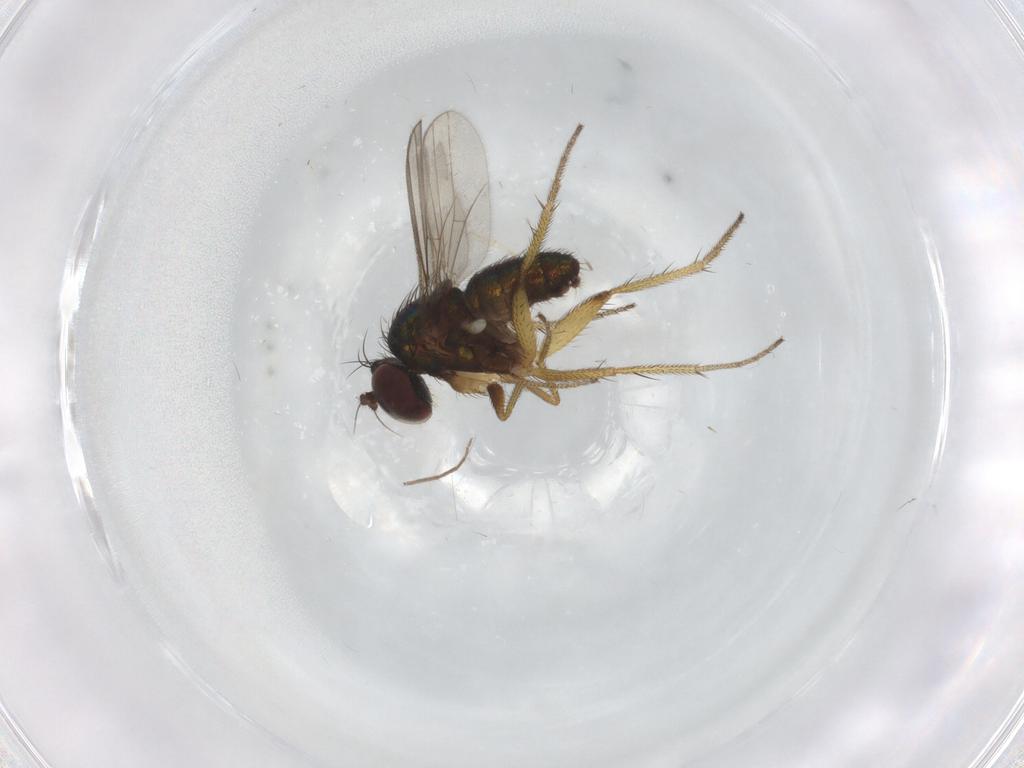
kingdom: Animalia
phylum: Arthropoda
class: Insecta
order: Diptera
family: Dolichopodidae
